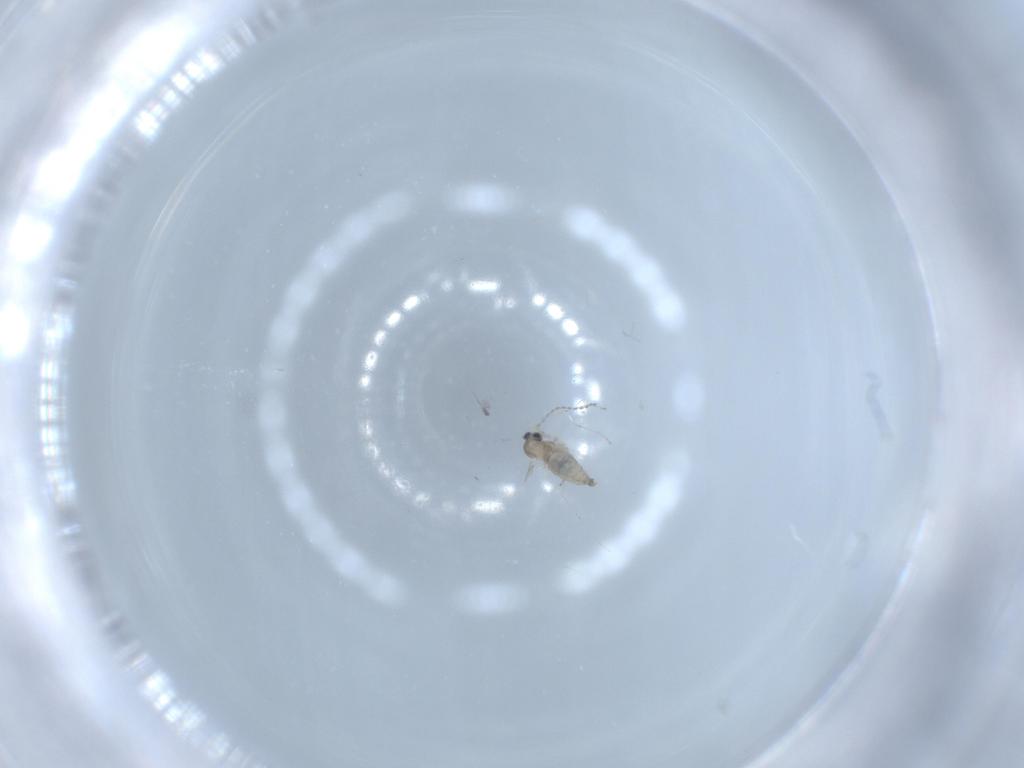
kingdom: Animalia
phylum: Arthropoda
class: Insecta
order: Diptera
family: Cecidomyiidae
